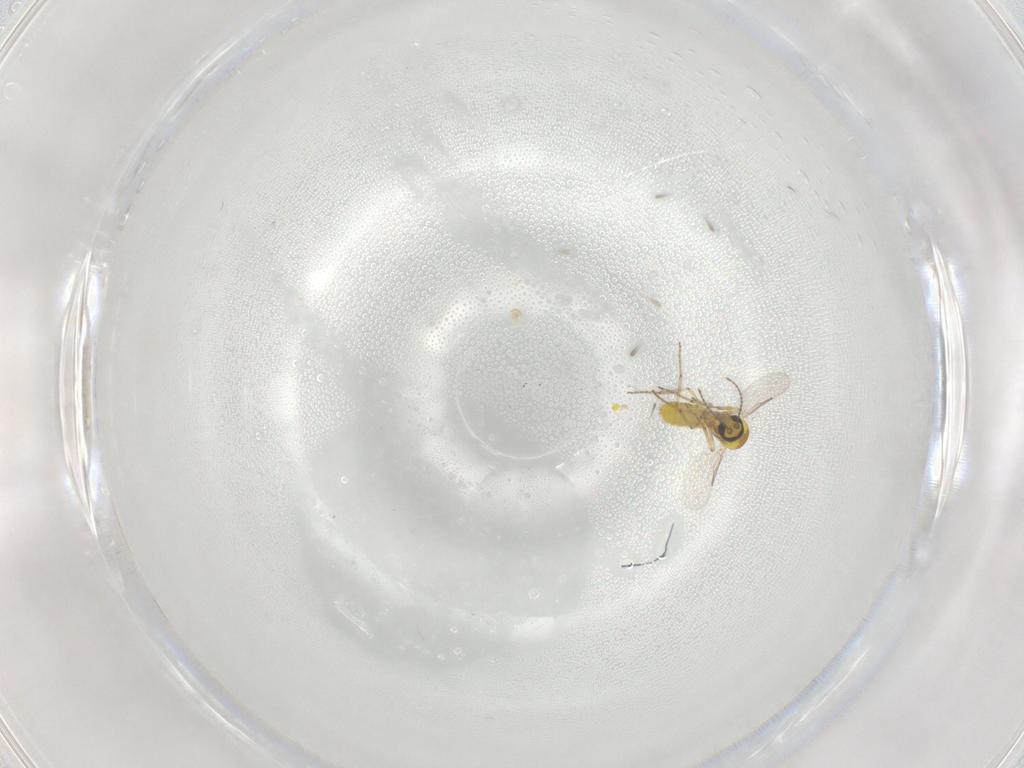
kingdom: Animalia
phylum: Arthropoda
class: Insecta
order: Diptera
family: Ceratopogonidae
